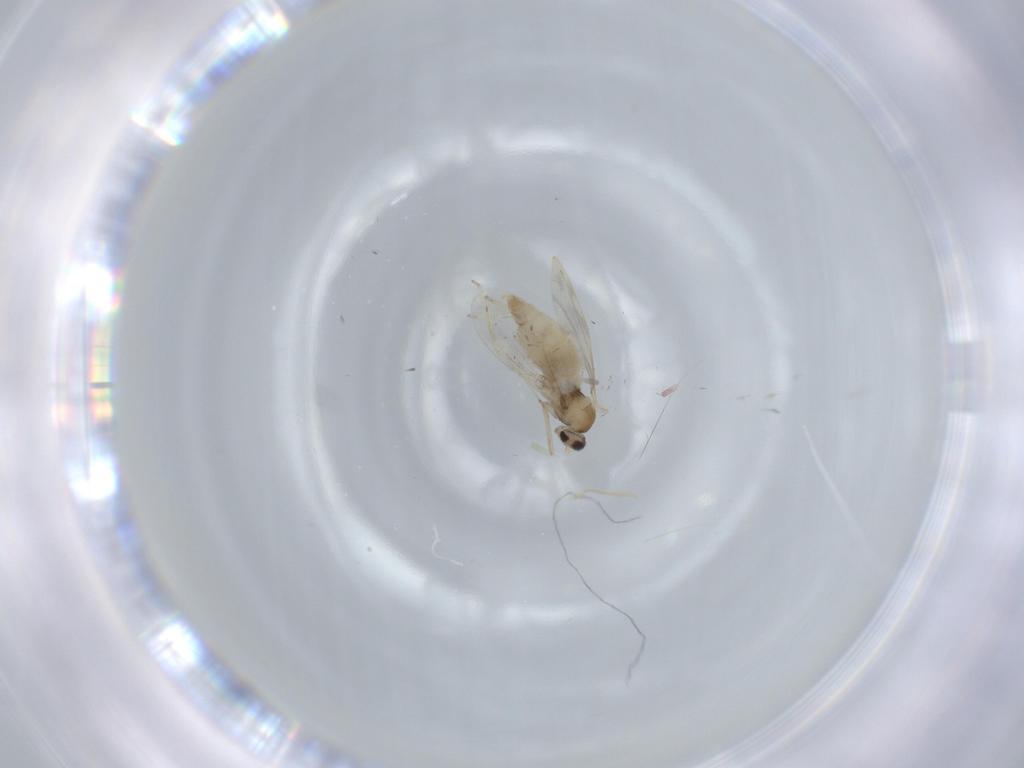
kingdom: Animalia
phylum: Arthropoda
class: Insecta
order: Diptera
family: Cecidomyiidae
